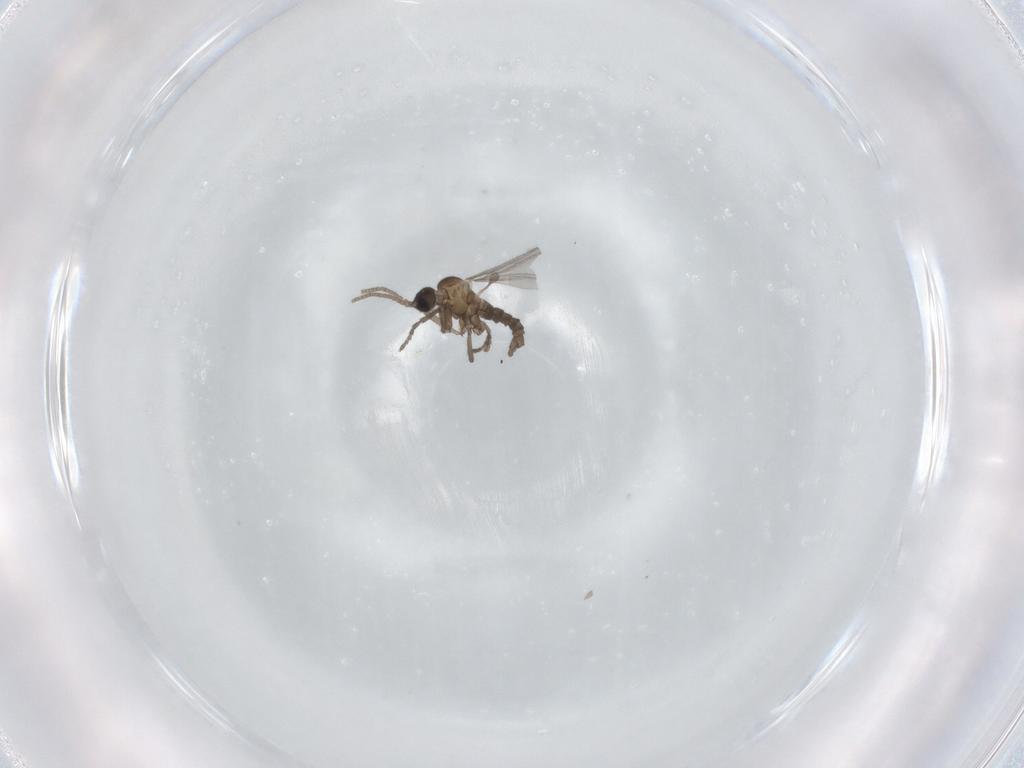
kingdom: Animalia
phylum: Arthropoda
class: Insecta
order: Diptera
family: Sciaridae
